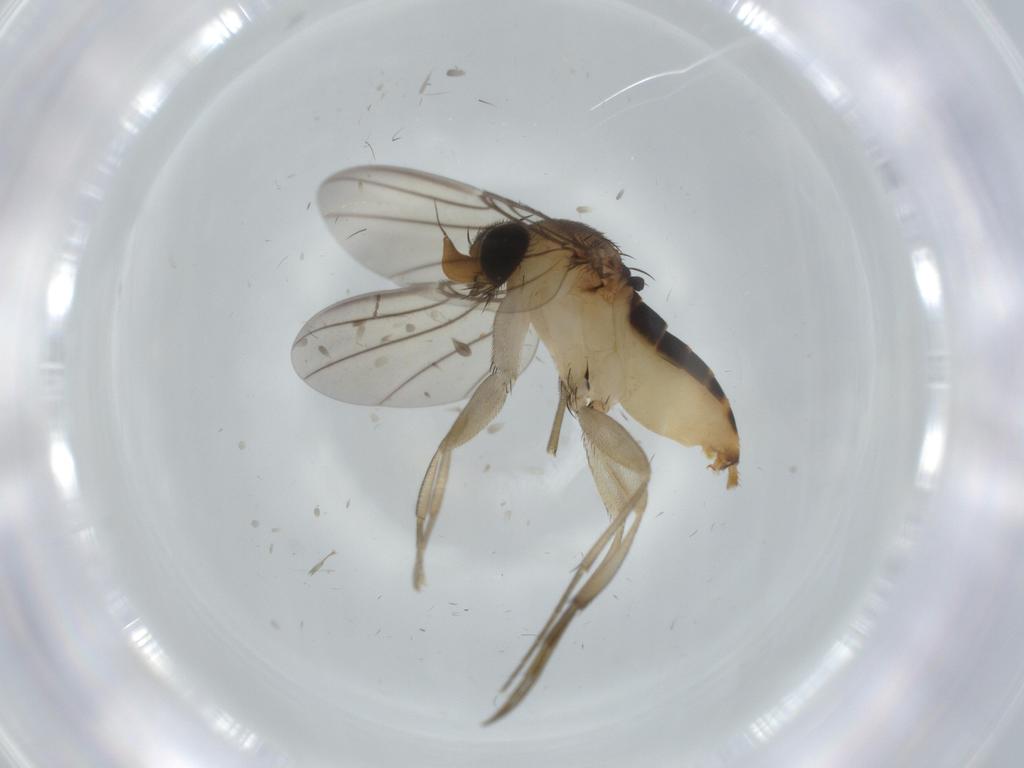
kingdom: Animalia
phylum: Arthropoda
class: Insecta
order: Diptera
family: Phoridae
